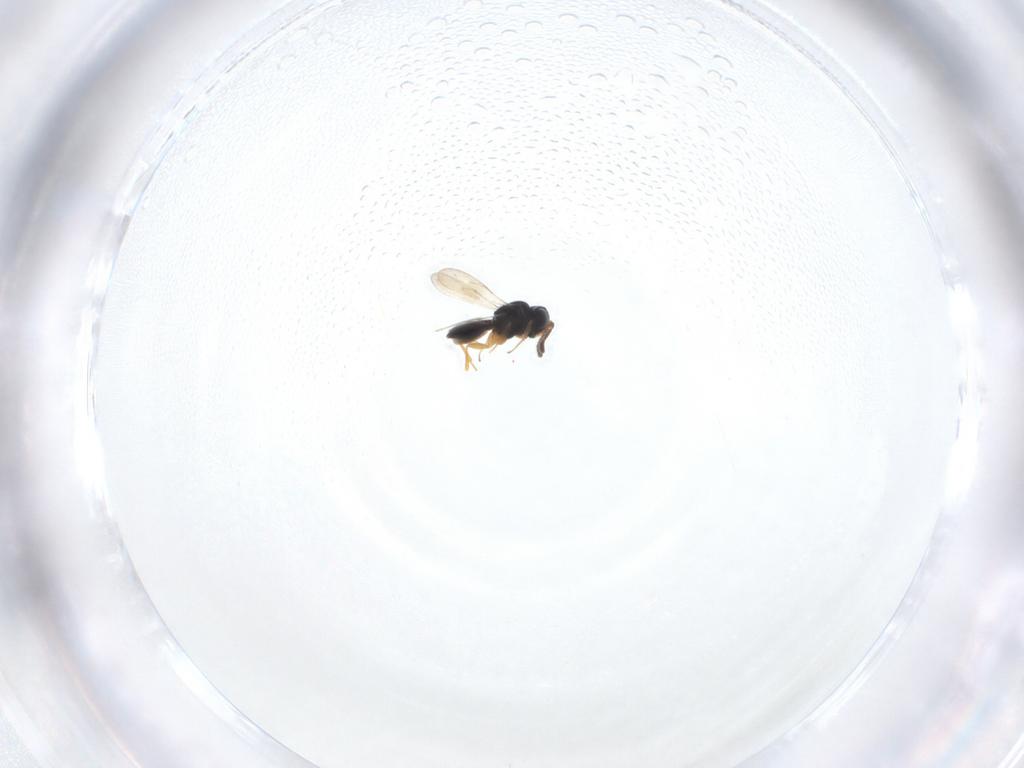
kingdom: Animalia
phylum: Arthropoda
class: Insecta
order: Hymenoptera
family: Scelionidae
